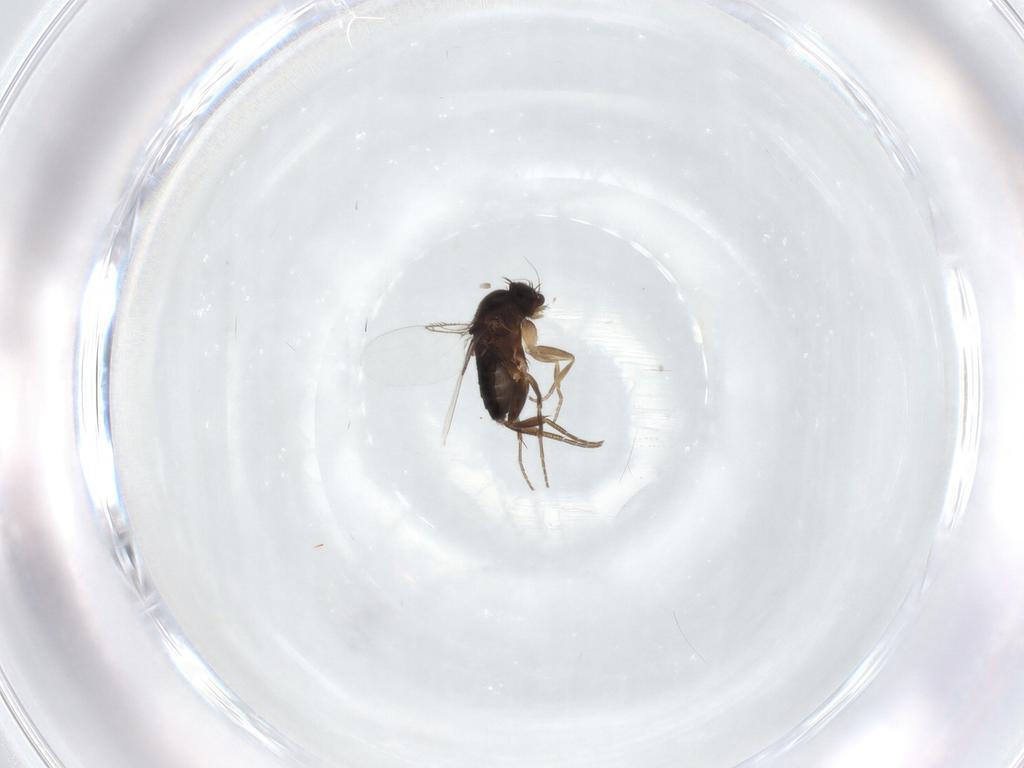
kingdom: Animalia
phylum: Arthropoda
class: Insecta
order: Diptera
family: Phoridae
